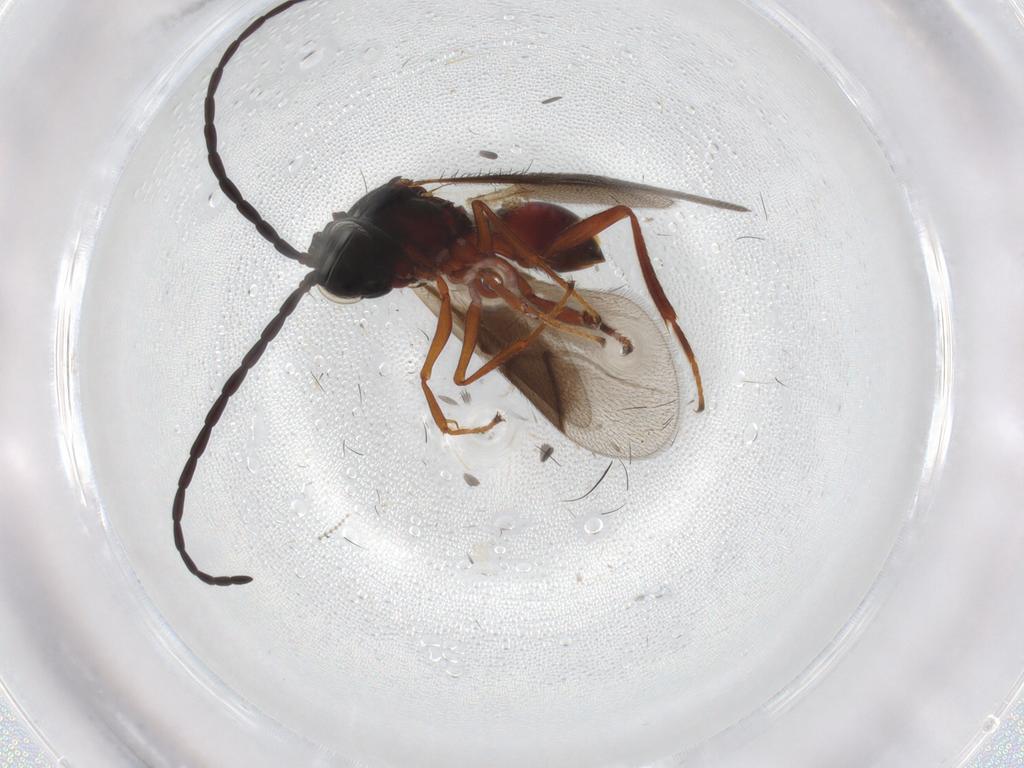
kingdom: Animalia
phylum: Arthropoda
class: Insecta
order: Hymenoptera
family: Figitidae
